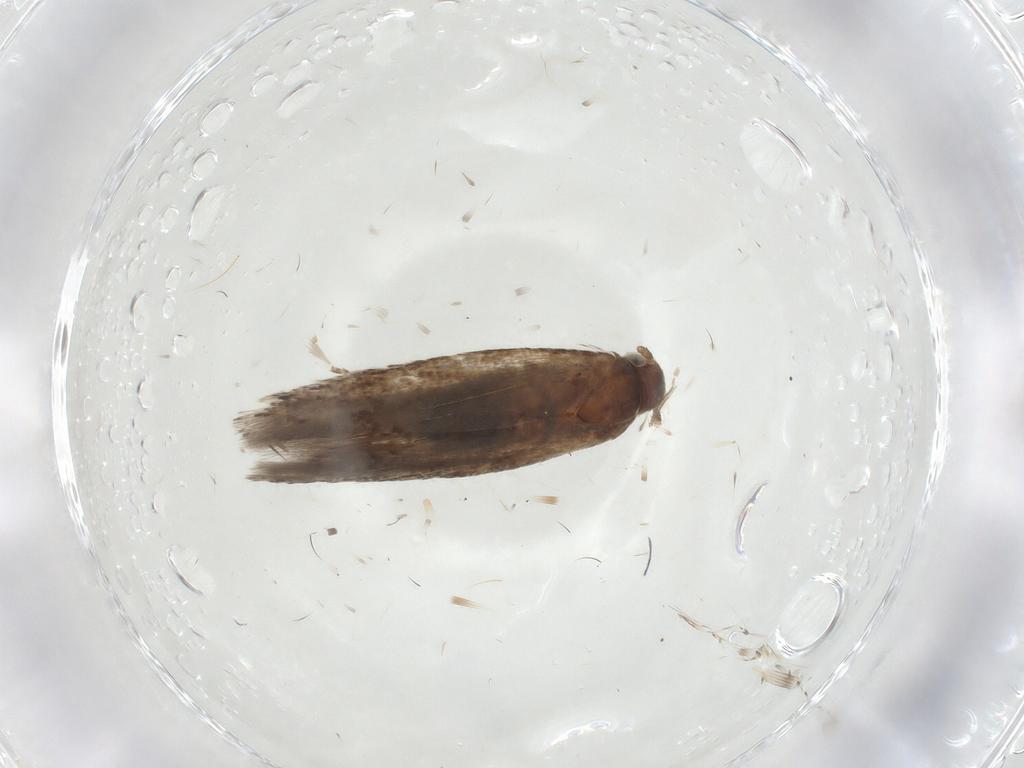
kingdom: Animalia
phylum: Arthropoda
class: Insecta
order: Lepidoptera
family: Gelechiidae
